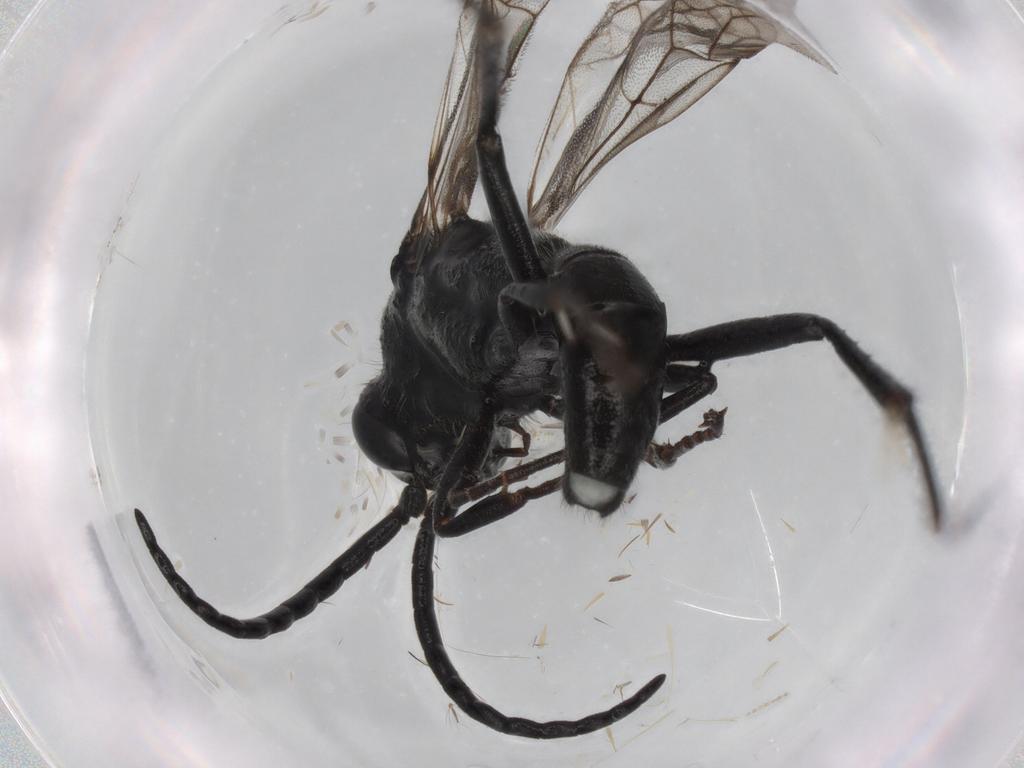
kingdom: Animalia
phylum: Arthropoda
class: Insecta
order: Hymenoptera
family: Pompilidae
